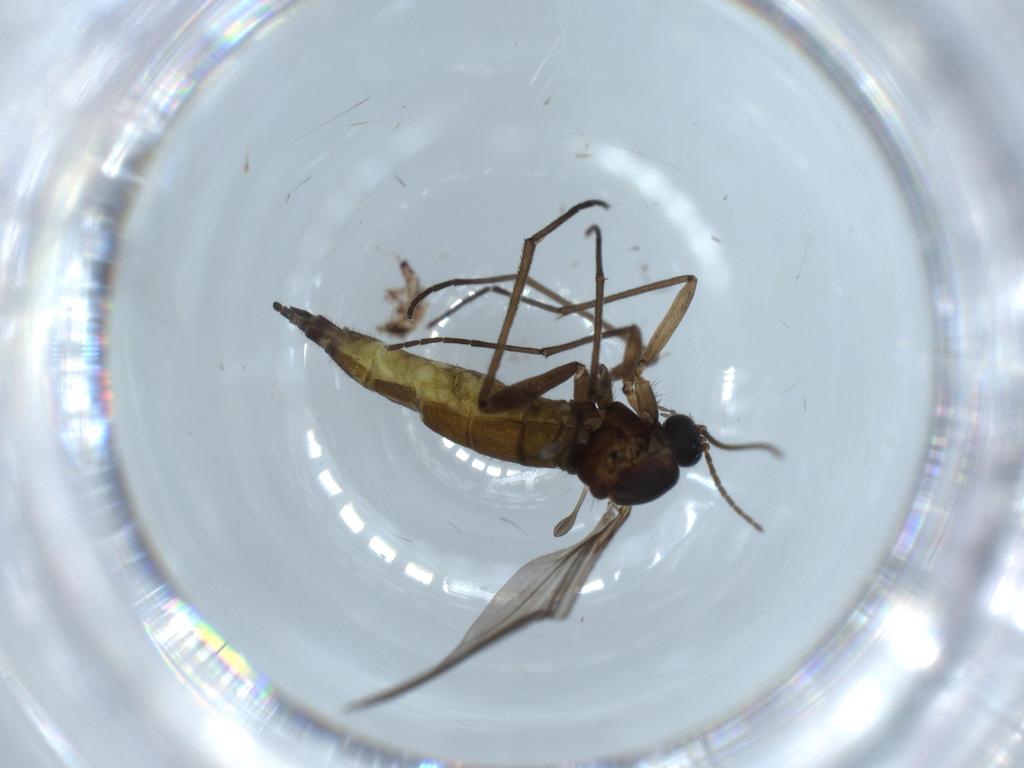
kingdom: Animalia
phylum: Arthropoda
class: Insecta
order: Diptera
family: Sciaridae
